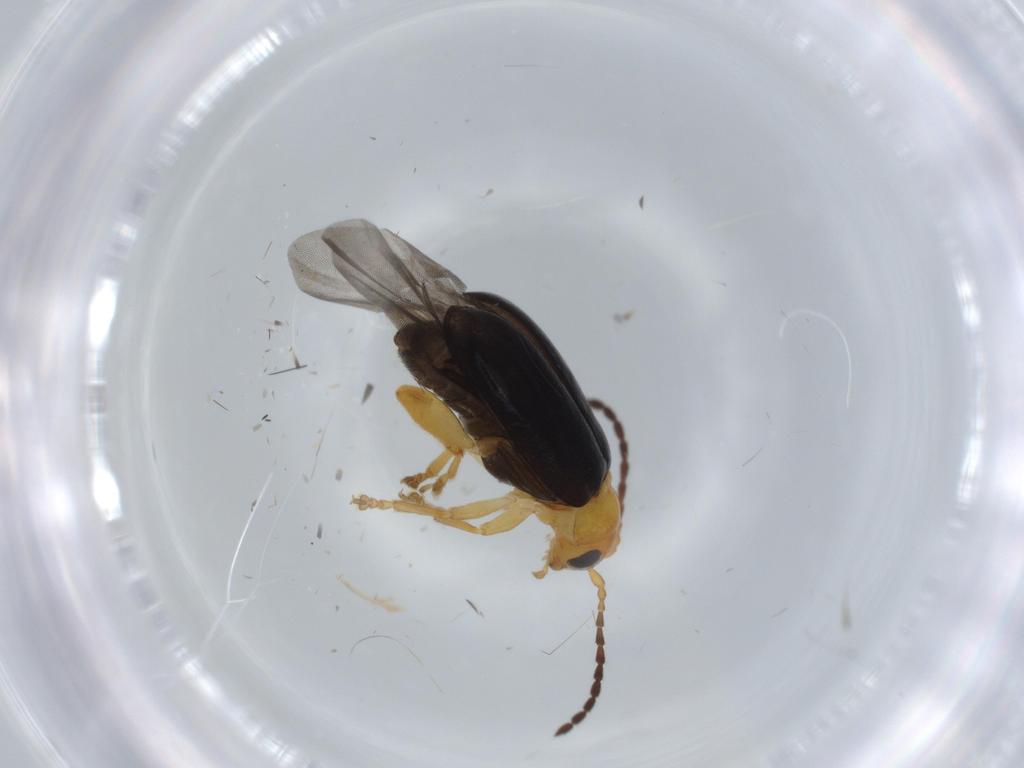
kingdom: Animalia
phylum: Arthropoda
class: Insecta
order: Coleoptera
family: Chrysomelidae
